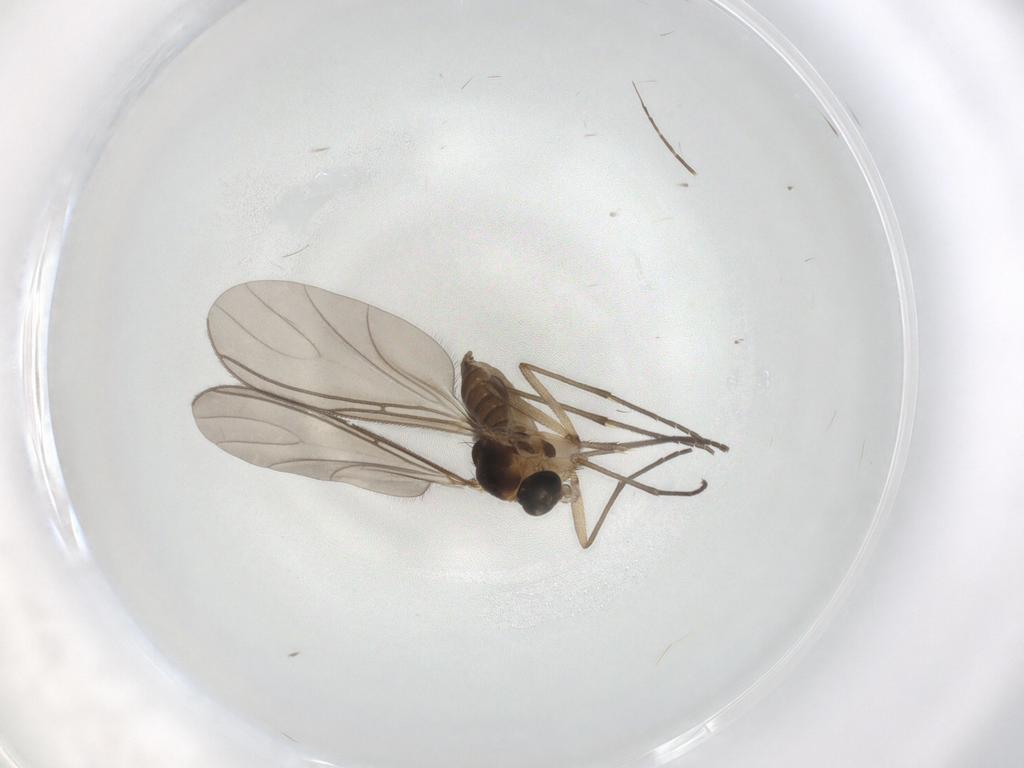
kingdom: Animalia
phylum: Arthropoda
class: Insecta
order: Diptera
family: Sciaridae
